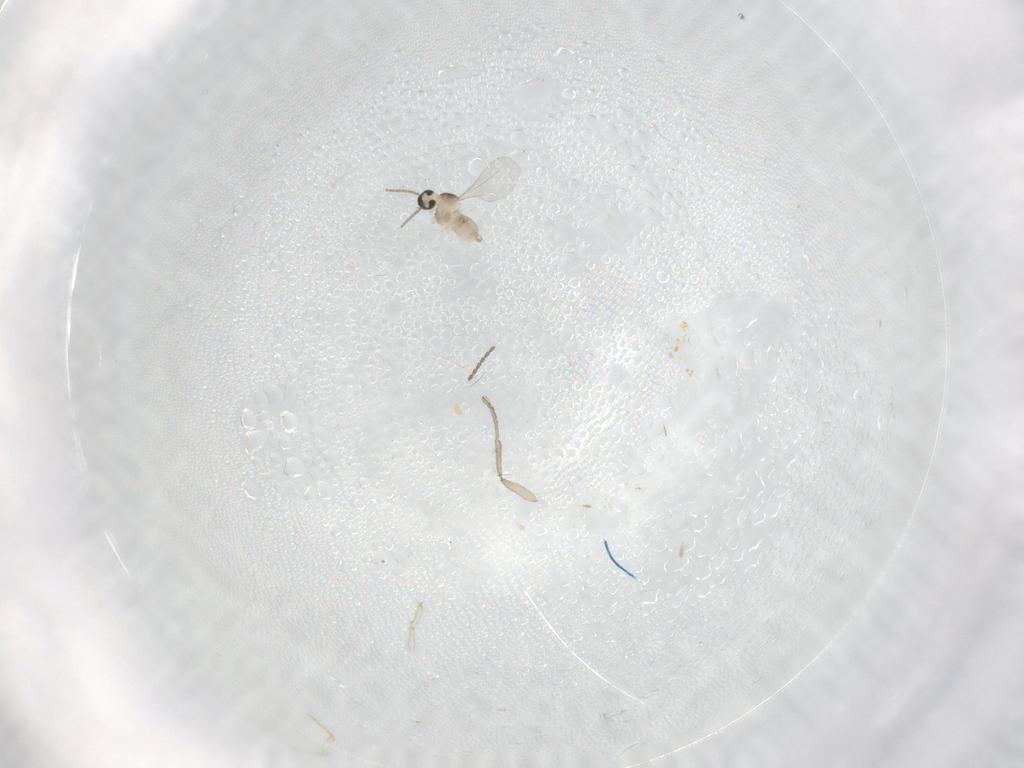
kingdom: Animalia
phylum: Arthropoda
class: Insecta
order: Diptera
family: Psychodidae
